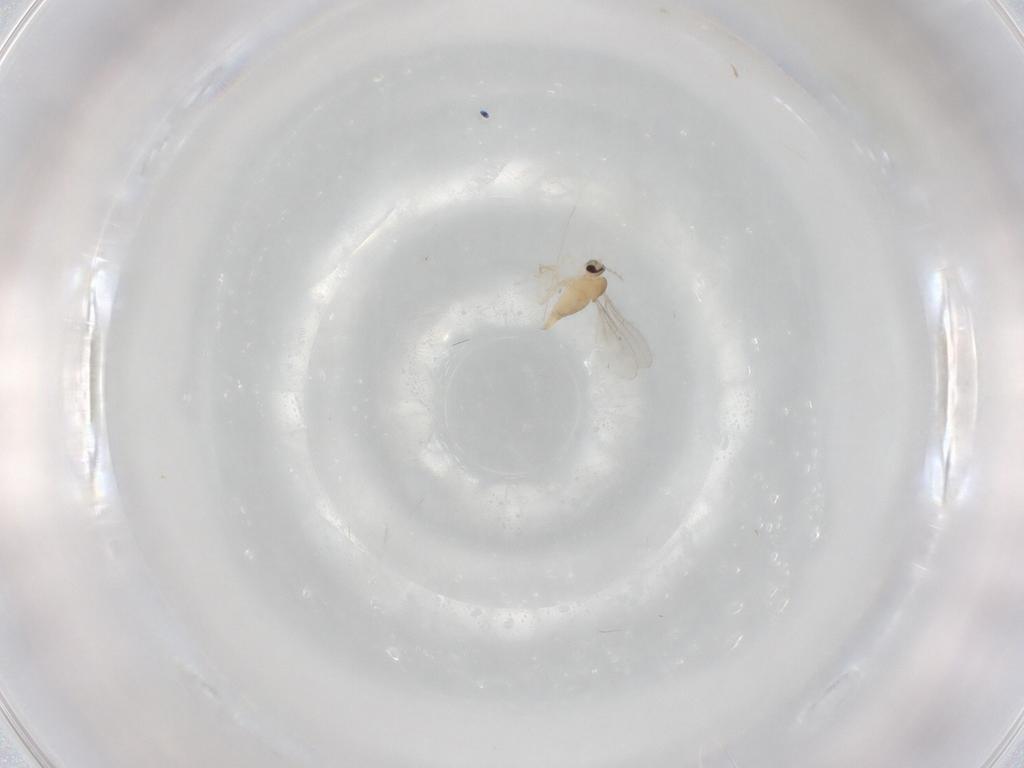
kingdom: Animalia
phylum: Arthropoda
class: Insecta
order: Diptera
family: Cecidomyiidae
